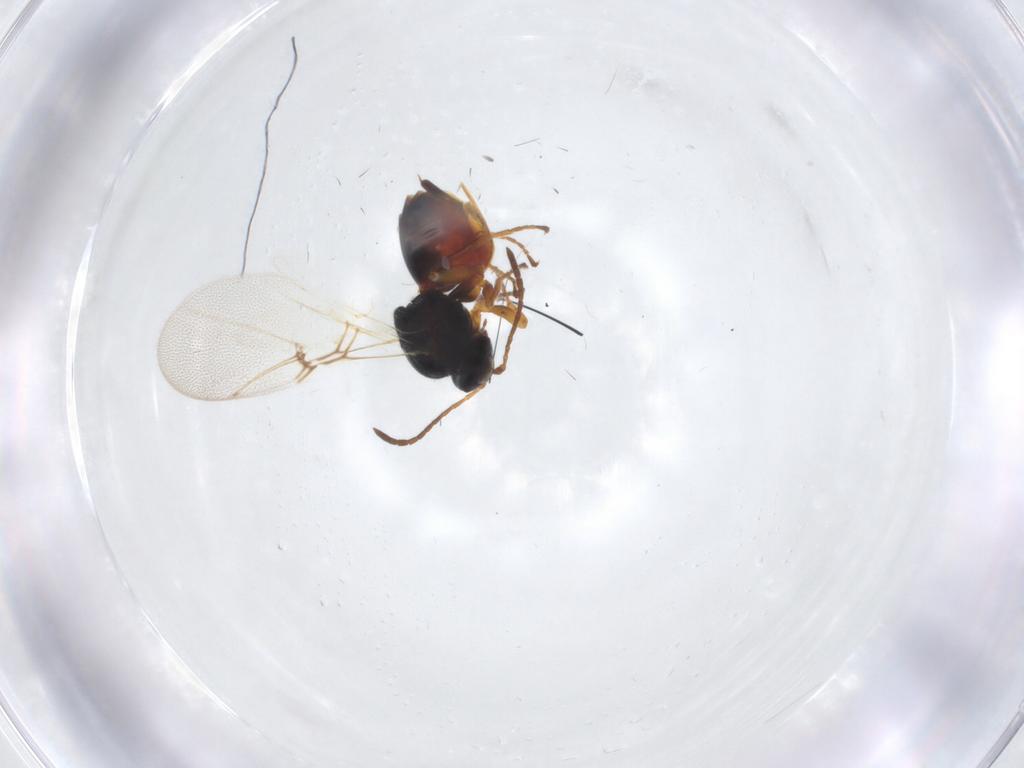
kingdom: Animalia
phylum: Arthropoda
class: Insecta
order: Hymenoptera
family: Cynipidae
